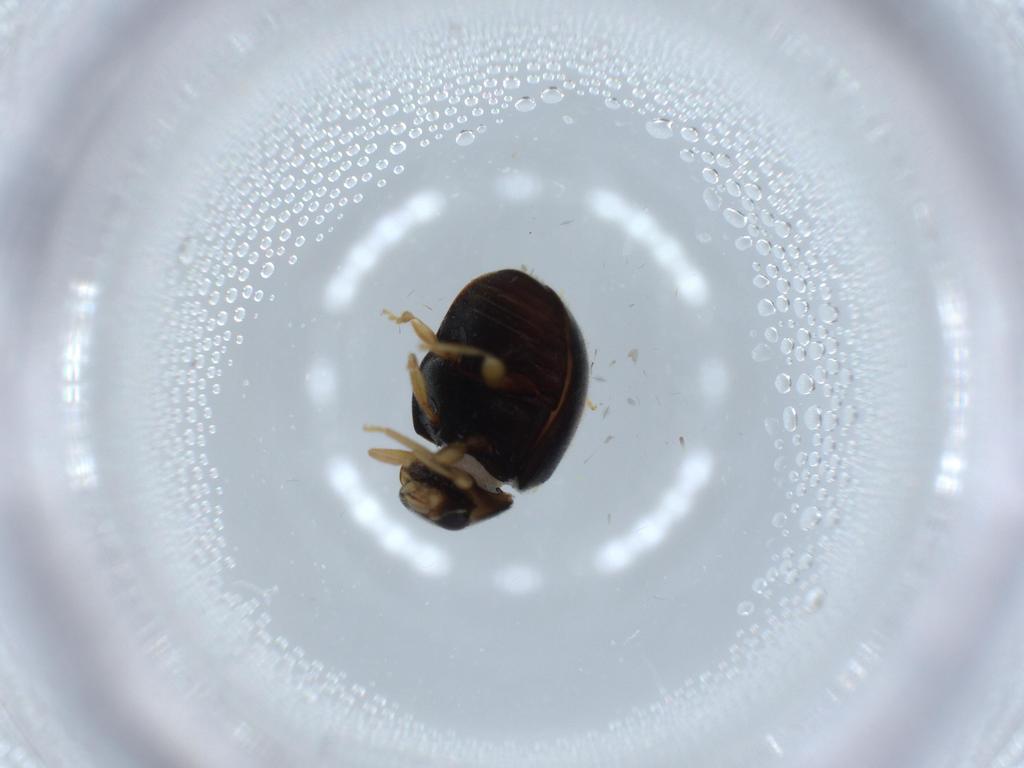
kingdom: Animalia
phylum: Arthropoda
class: Insecta
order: Coleoptera
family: Coccinellidae
